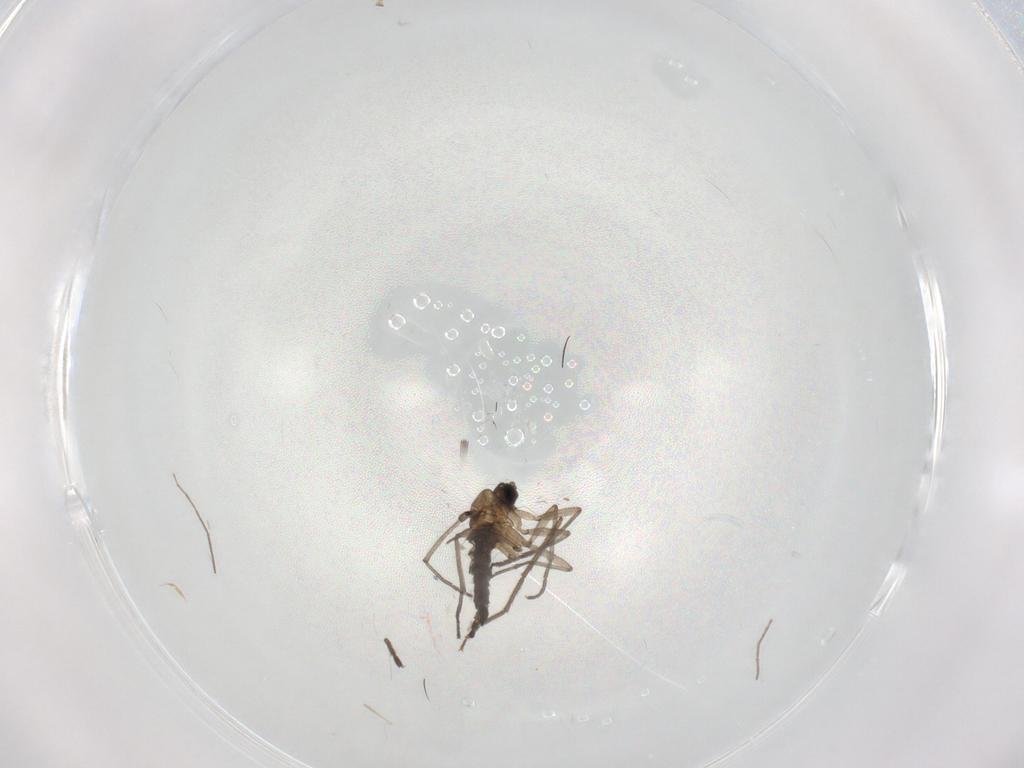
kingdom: Animalia
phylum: Arthropoda
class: Insecta
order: Diptera
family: Sciaridae
